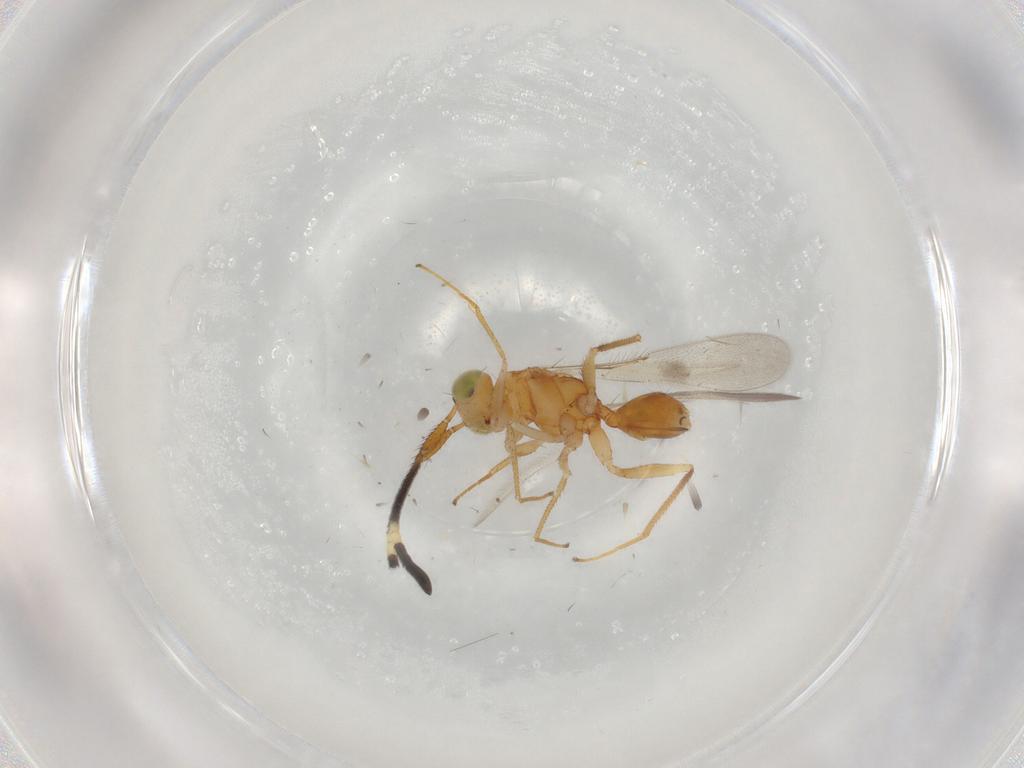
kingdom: Animalia
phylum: Arthropoda
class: Insecta
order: Hymenoptera
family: Mymaridae
